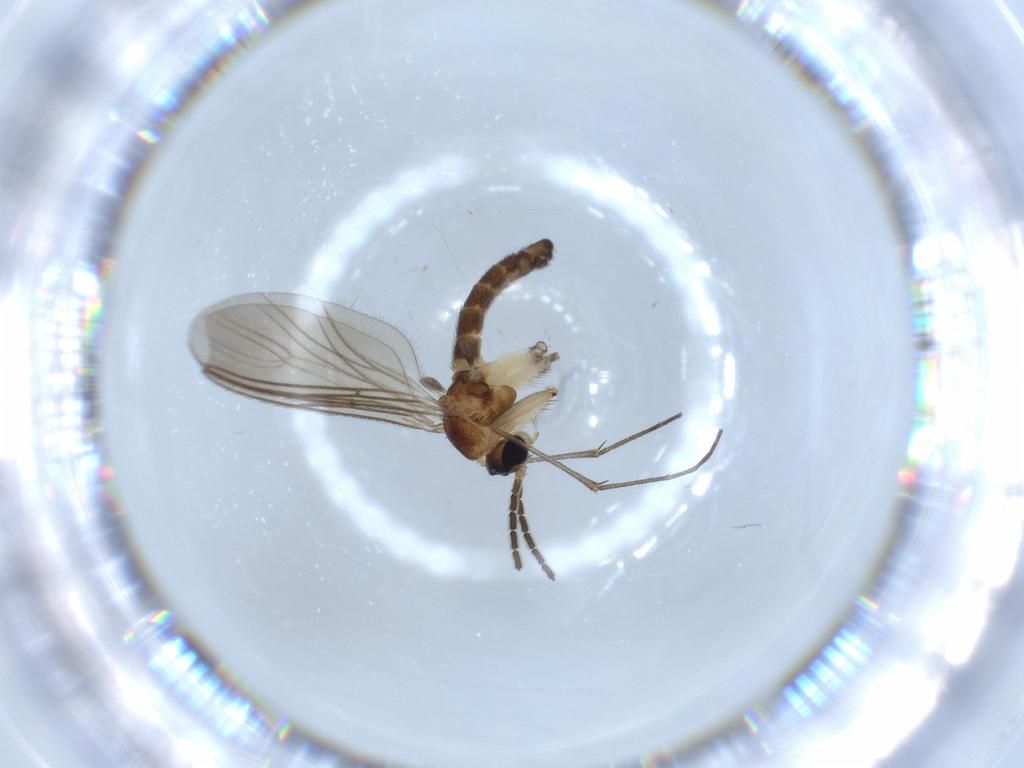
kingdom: Animalia
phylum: Arthropoda
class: Insecta
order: Diptera
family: Sciaridae
